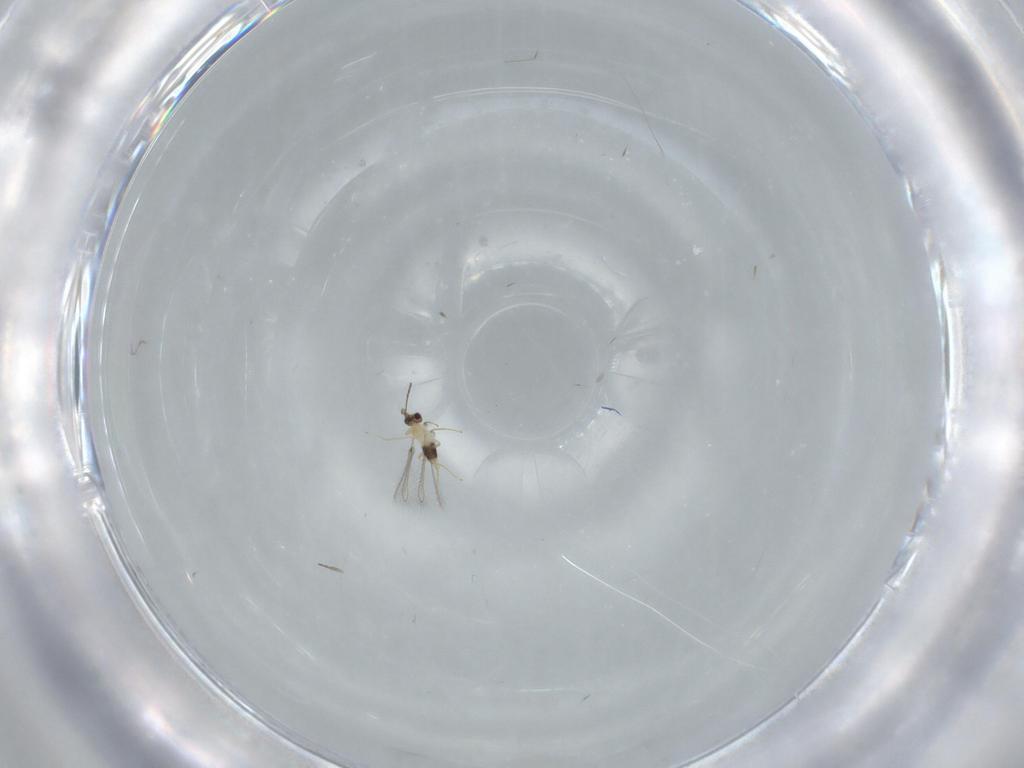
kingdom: Animalia
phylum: Arthropoda
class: Insecta
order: Hymenoptera
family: Mymaridae
